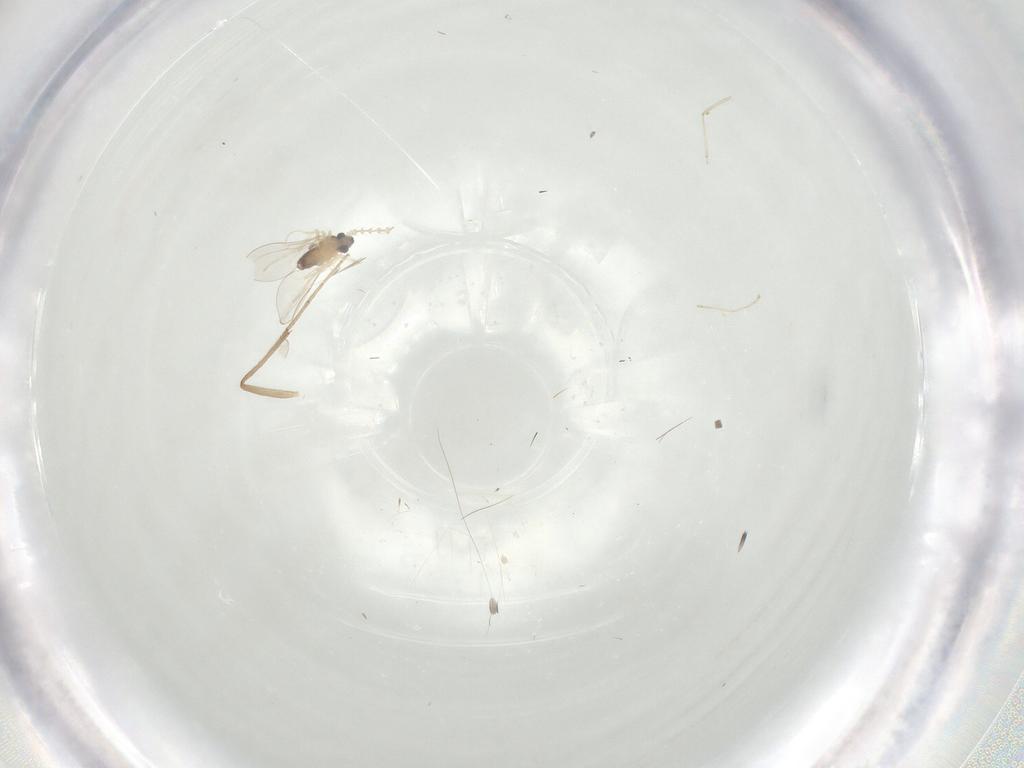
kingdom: Animalia
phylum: Arthropoda
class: Insecta
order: Diptera
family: Cecidomyiidae
